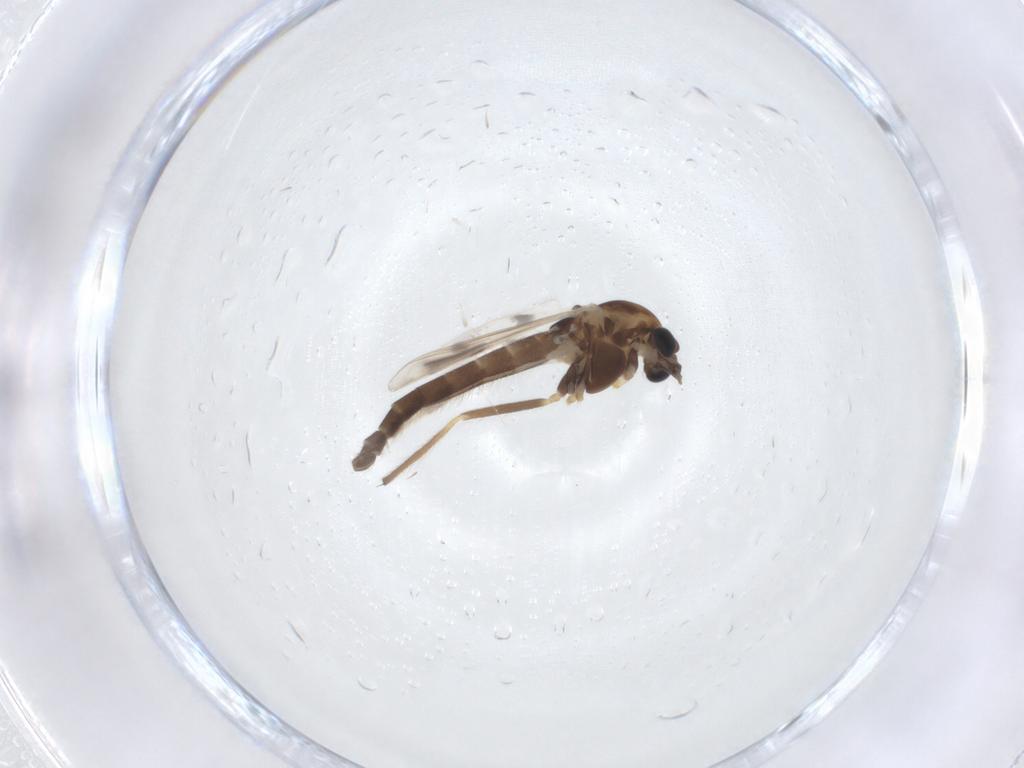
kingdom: Animalia
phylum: Arthropoda
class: Insecta
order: Diptera
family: Chironomidae
